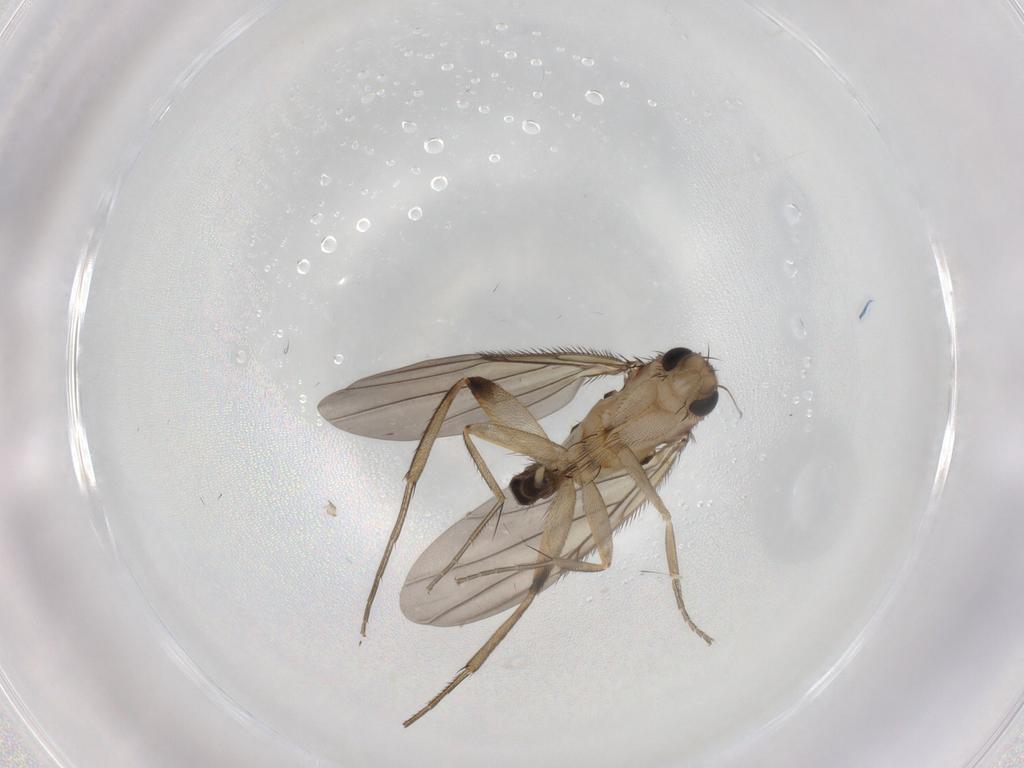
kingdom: Animalia
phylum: Arthropoda
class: Insecta
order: Diptera
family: Phoridae
